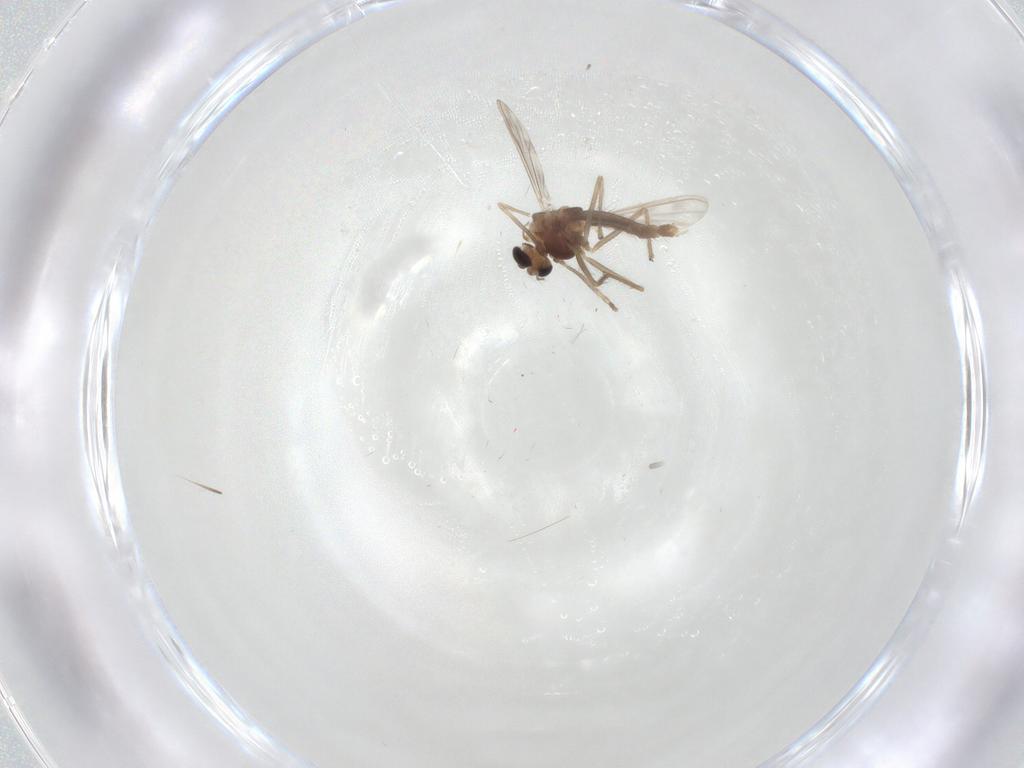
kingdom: Animalia
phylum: Arthropoda
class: Insecta
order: Diptera
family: Chironomidae
